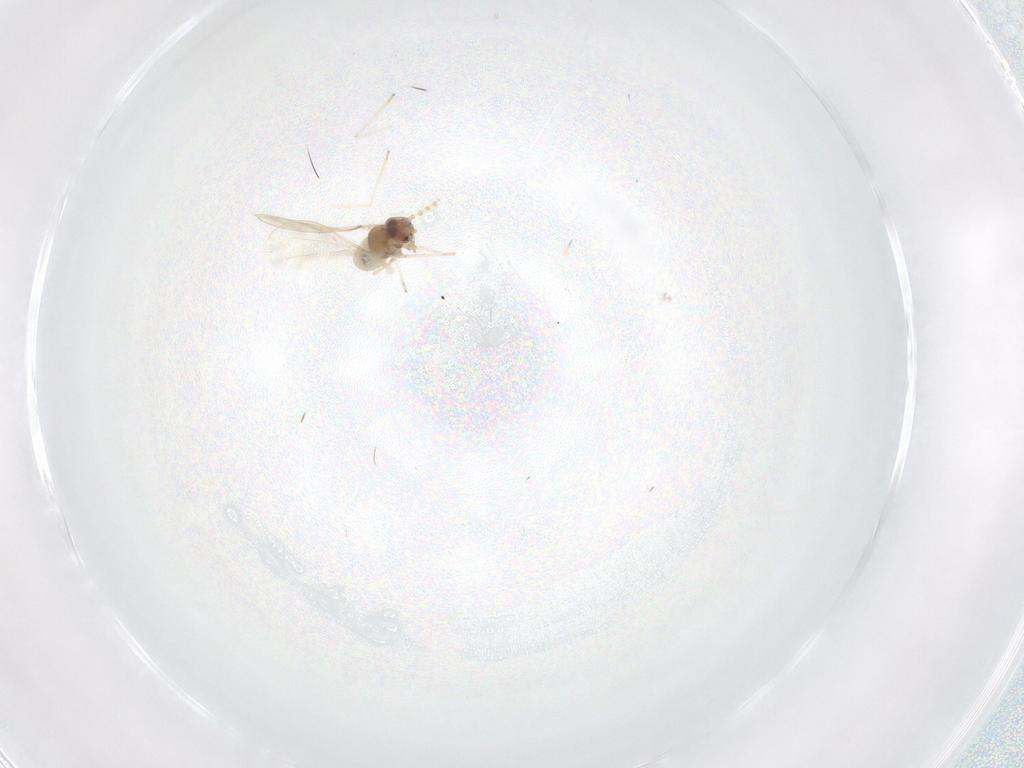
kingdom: Animalia
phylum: Arthropoda
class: Insecta
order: Diptera
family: Cecidomyiidae
